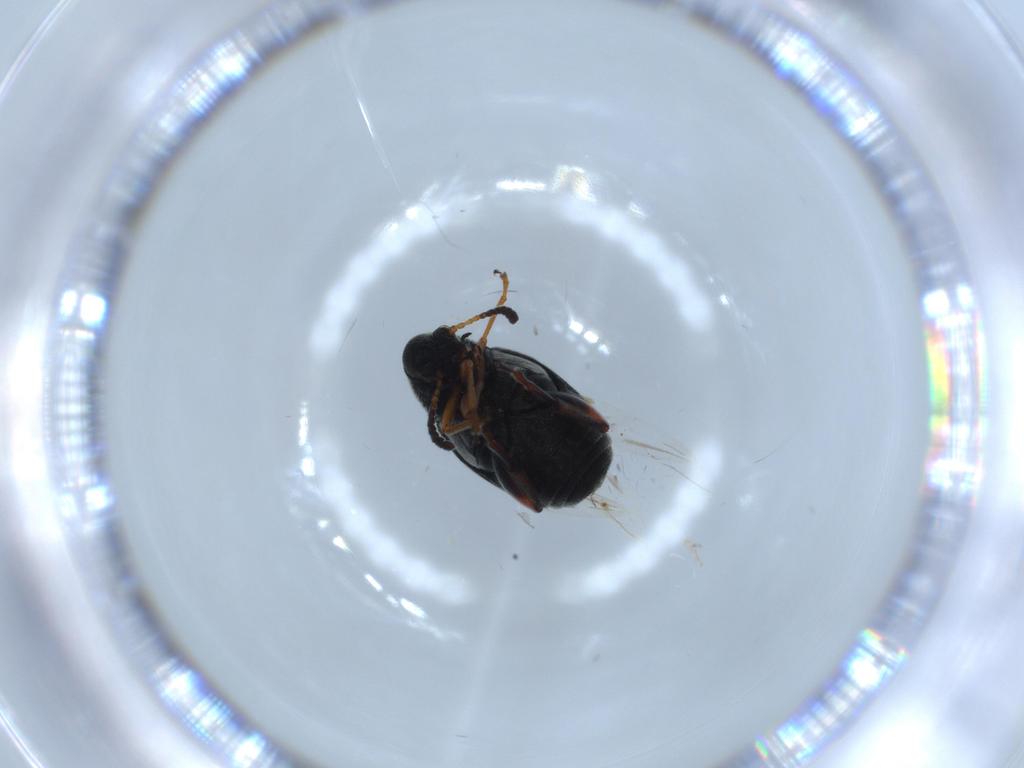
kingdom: Animalia
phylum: Arthropoda
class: Insecta
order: Coleoptera
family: Chrysomelidae
